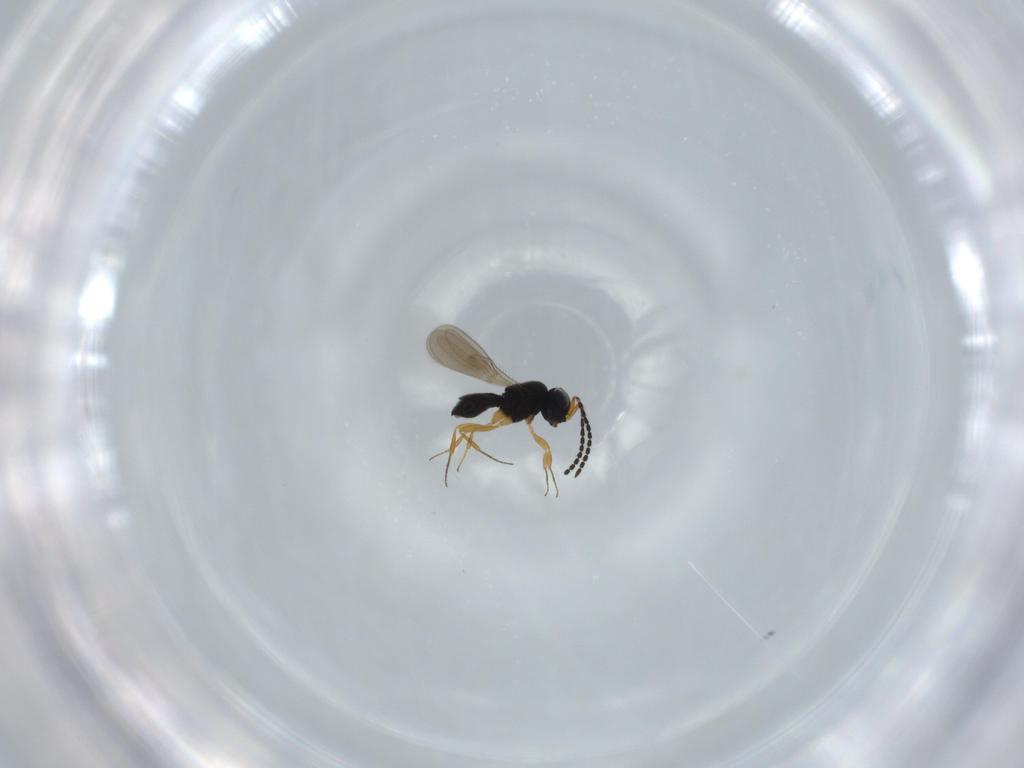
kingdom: Animalia
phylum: Arthropoda
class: Insecta
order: Hymenoptera
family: Scelionidae
